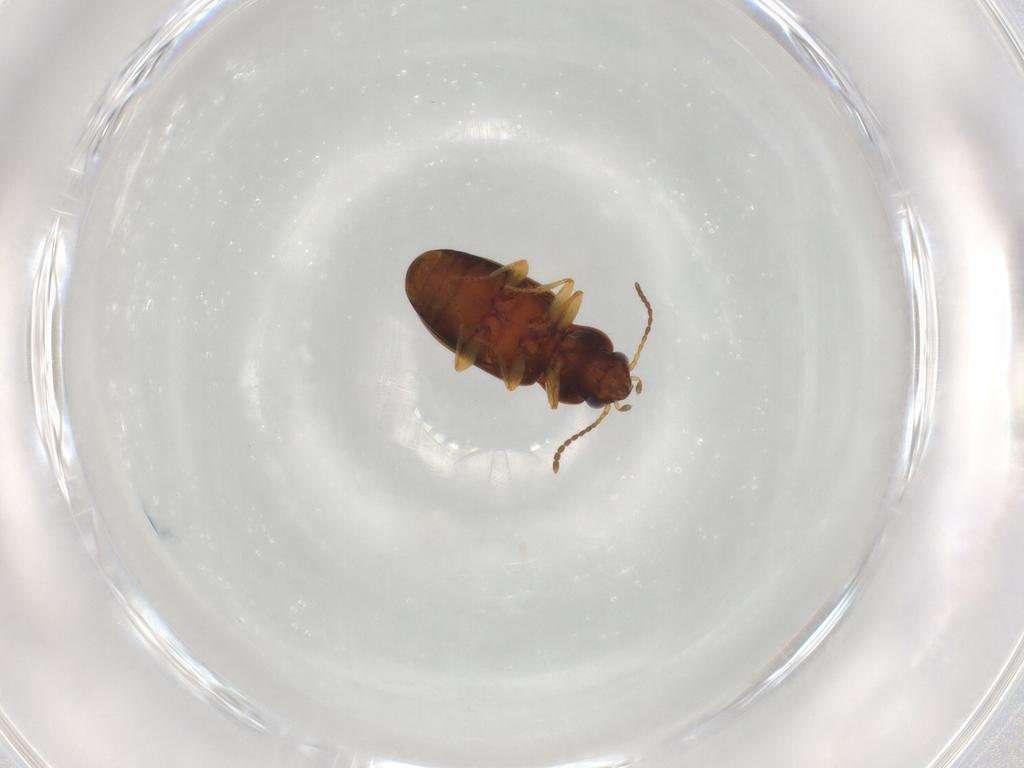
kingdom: Animalia
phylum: Arthropoda
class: Insecta
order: Coleoptera
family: Carabidae
